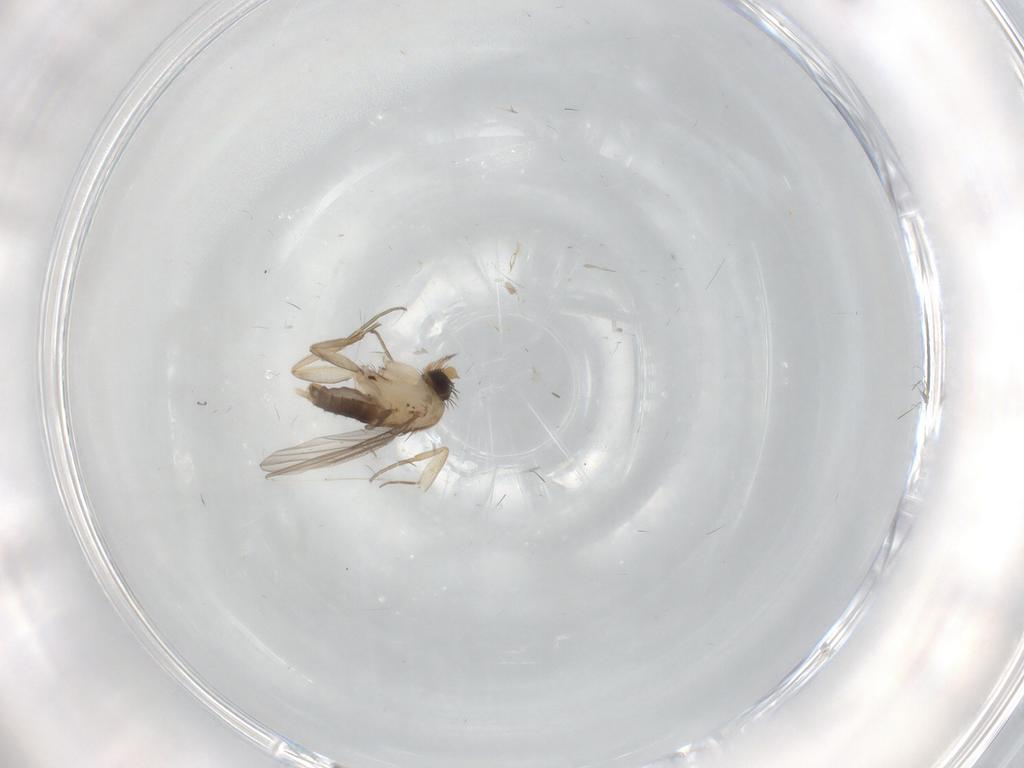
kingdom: Animalia
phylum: Arthropoda
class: Insecta
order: Diptera
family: Phoridae
